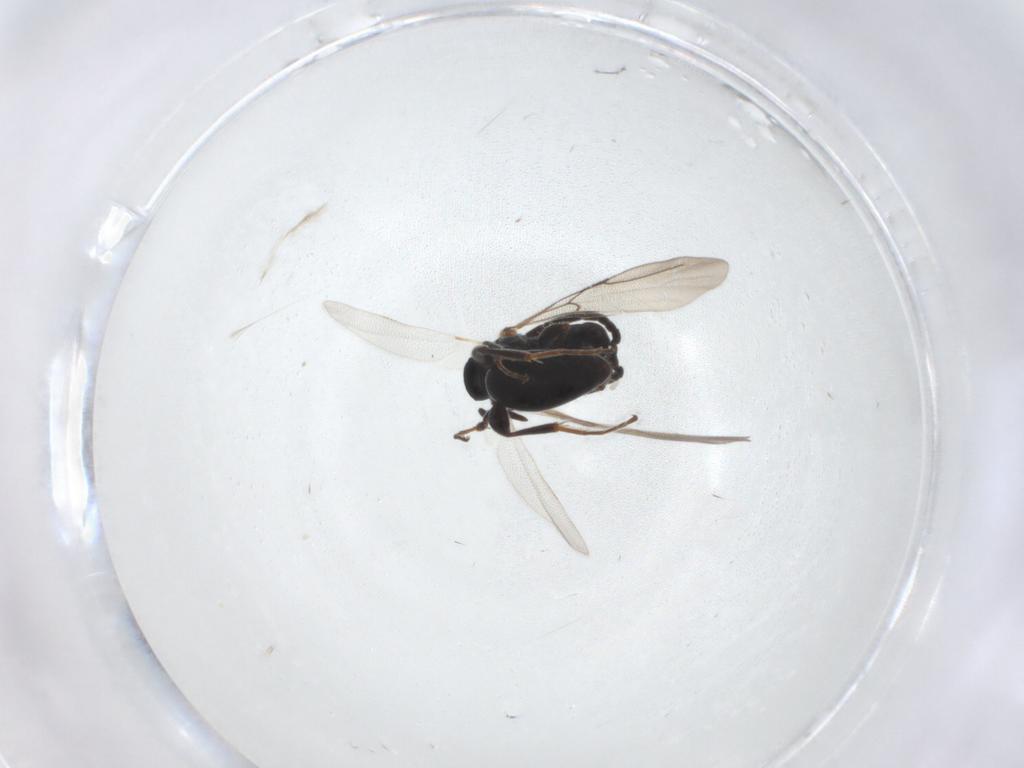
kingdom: Animalia
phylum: Arthropoda
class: Insecta
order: Hymenoptera
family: Bethylidae
